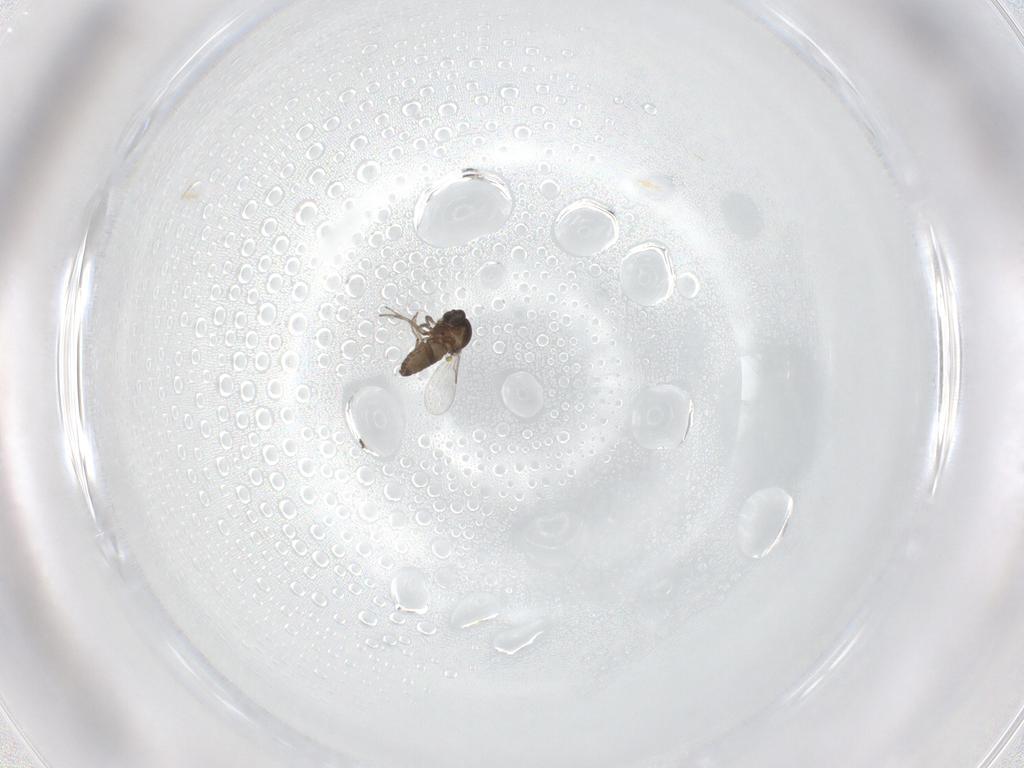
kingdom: Animalia
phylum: Arthropoda
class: Insecta
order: Diptera
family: Ceratopogonidae
